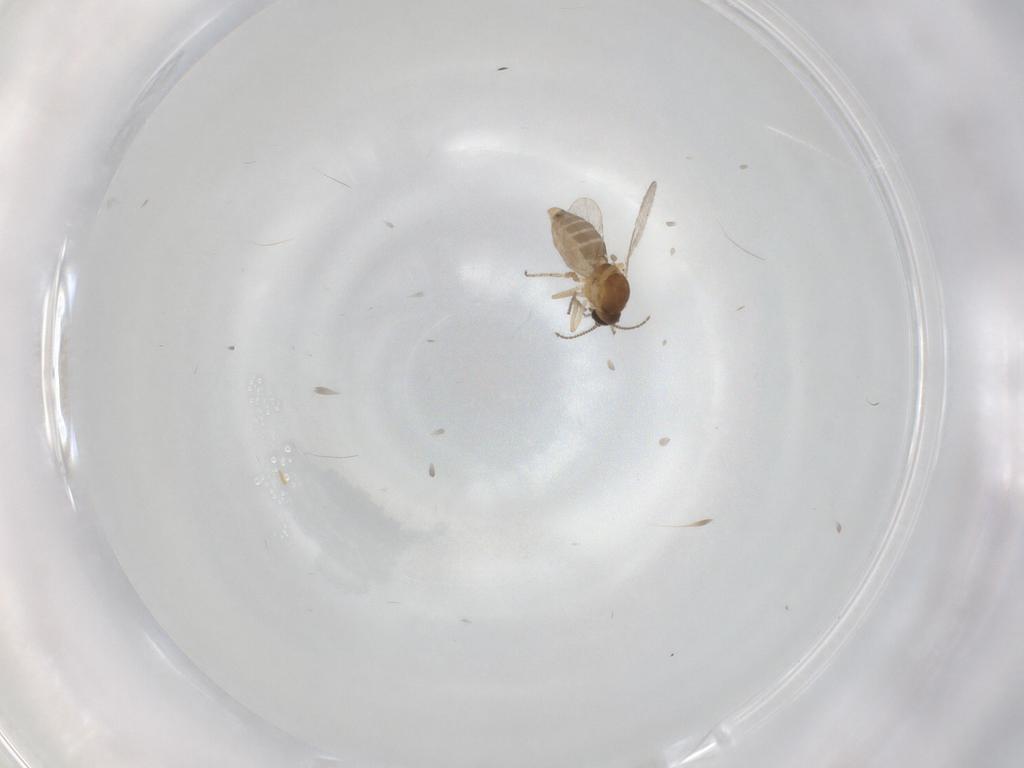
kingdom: Animalia
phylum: Arthropoda
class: Insecta
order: Diptera
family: Ceratopogonidae
